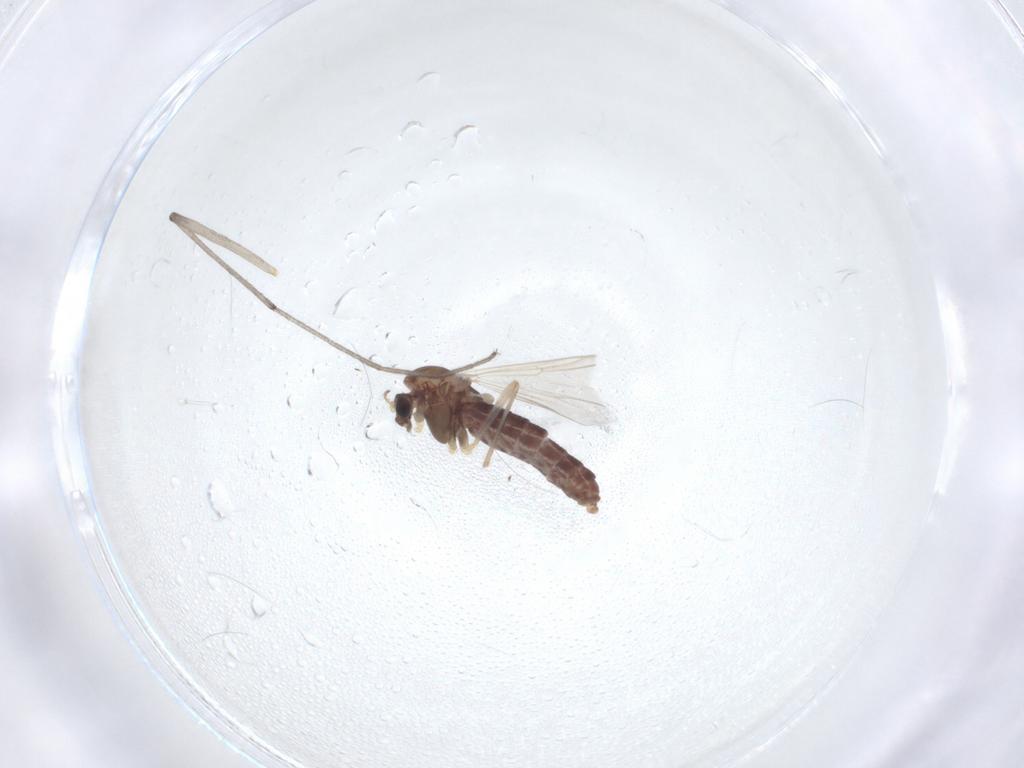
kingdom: Animalia
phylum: Arthropoda
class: Insecta
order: Diptera
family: Chironomidae
